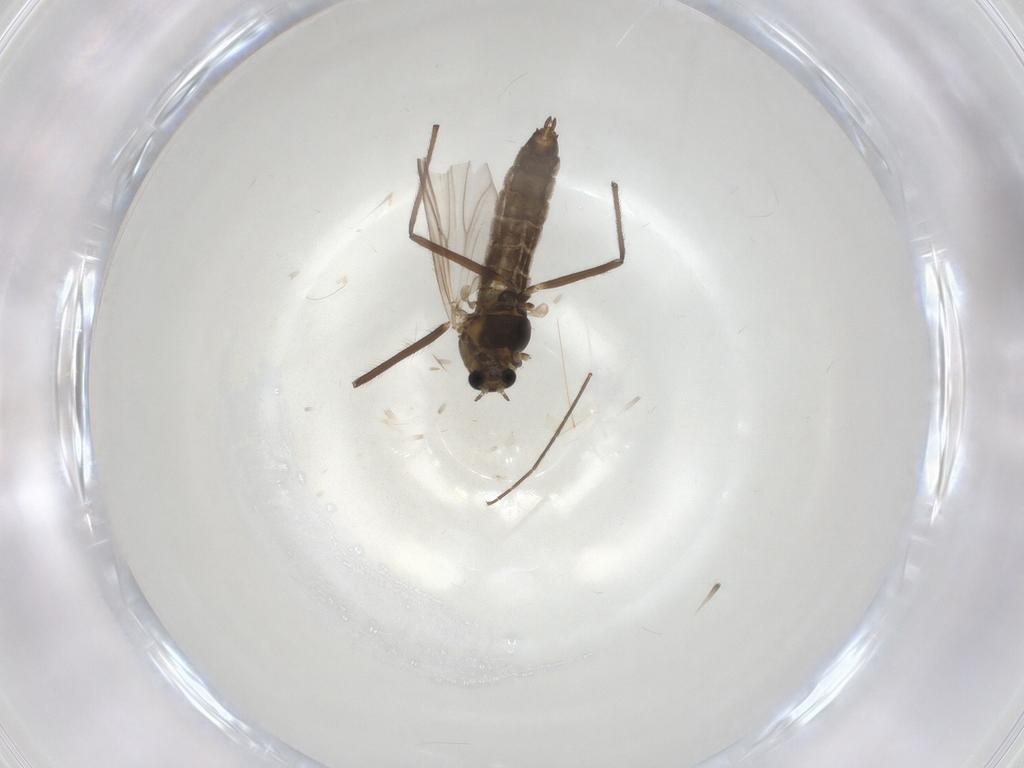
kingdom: Animalia
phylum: Arthropoda
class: Insecta
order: Diptera
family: Chironomidae
